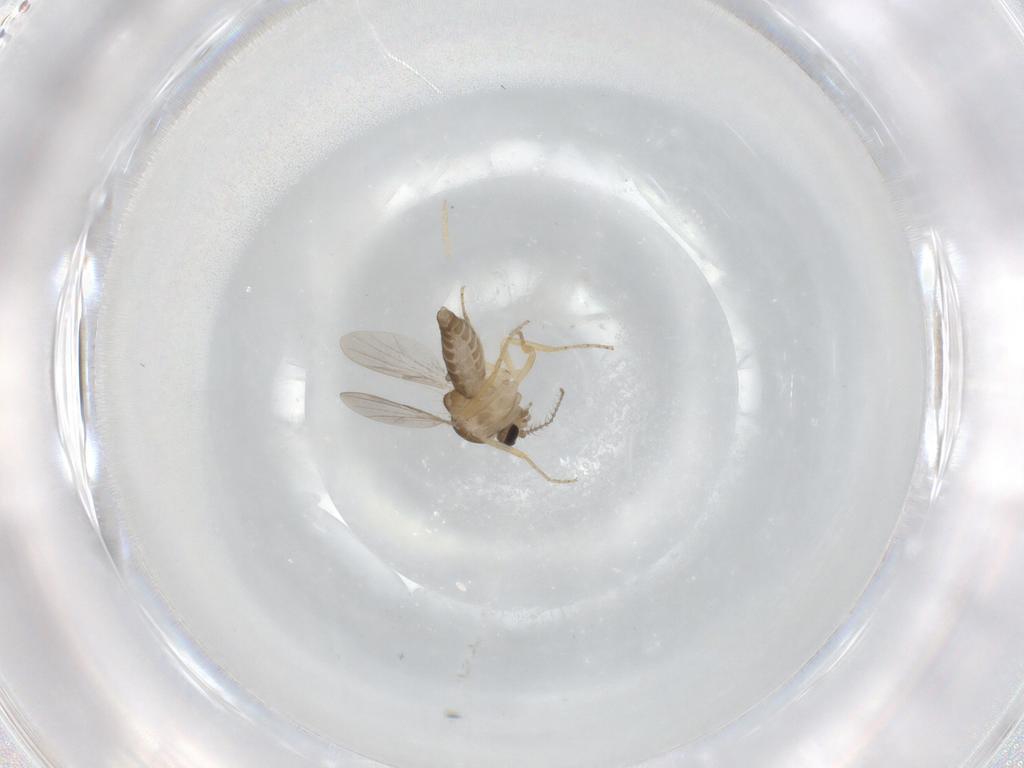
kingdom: Animalia
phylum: Arthropoda
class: Insecta
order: Diptera
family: Ceratopogonidae
